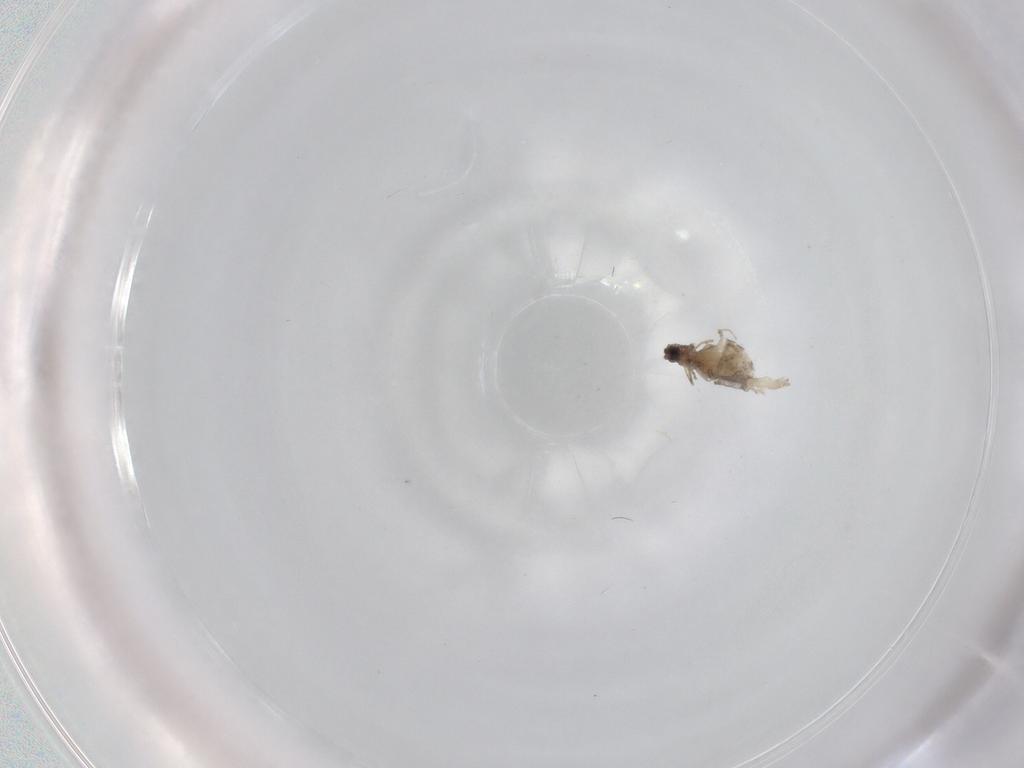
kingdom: Animalia
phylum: Arthropoda
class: Insecta
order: Diptera
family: Cecidomyiidae
